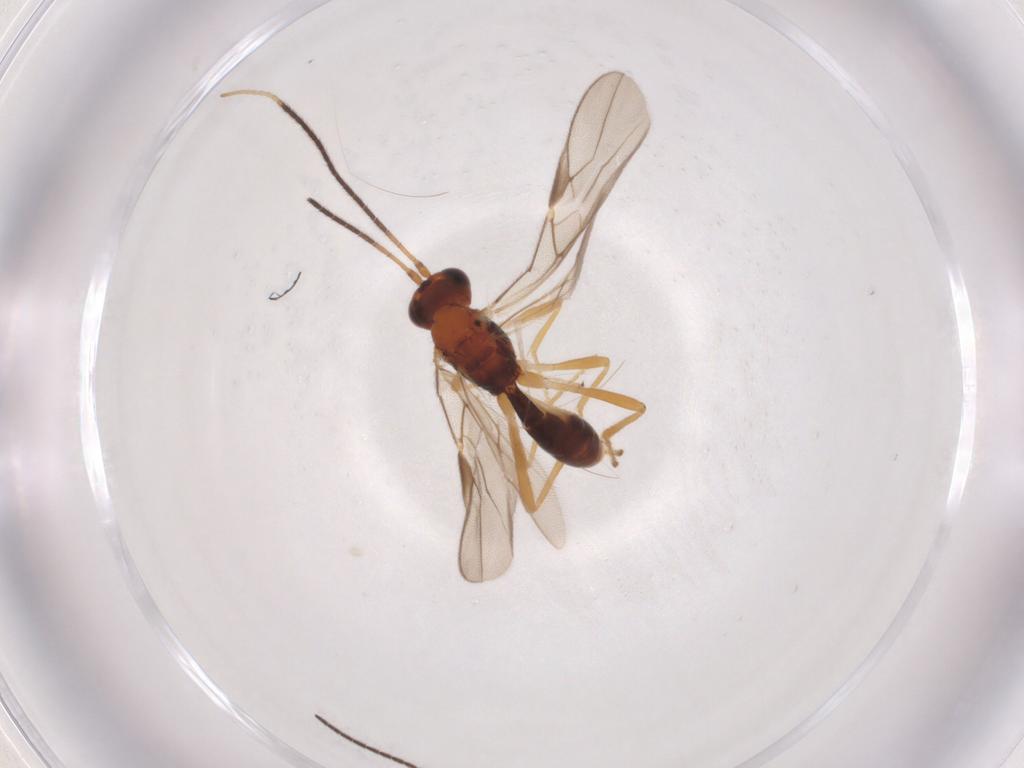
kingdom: Animalia
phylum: Arthropoda
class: Insecta
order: Hymenoptera
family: Braconidae
